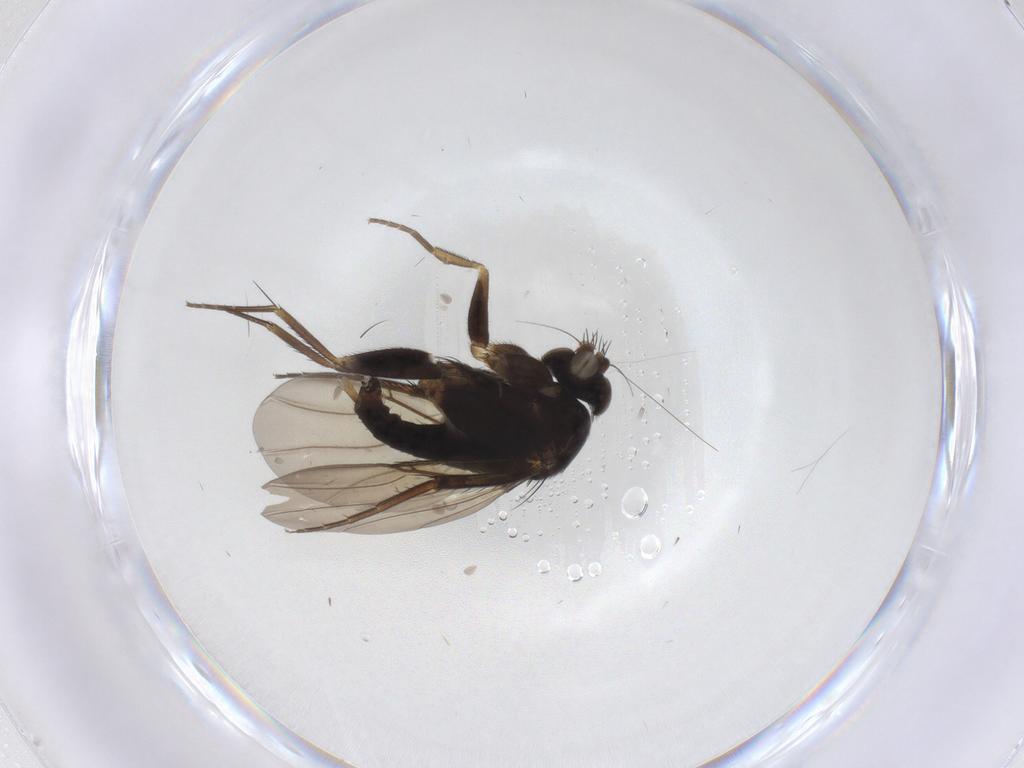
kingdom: Animalia
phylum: Arthropoda
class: Insecta
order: Diptera
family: Phoridae
